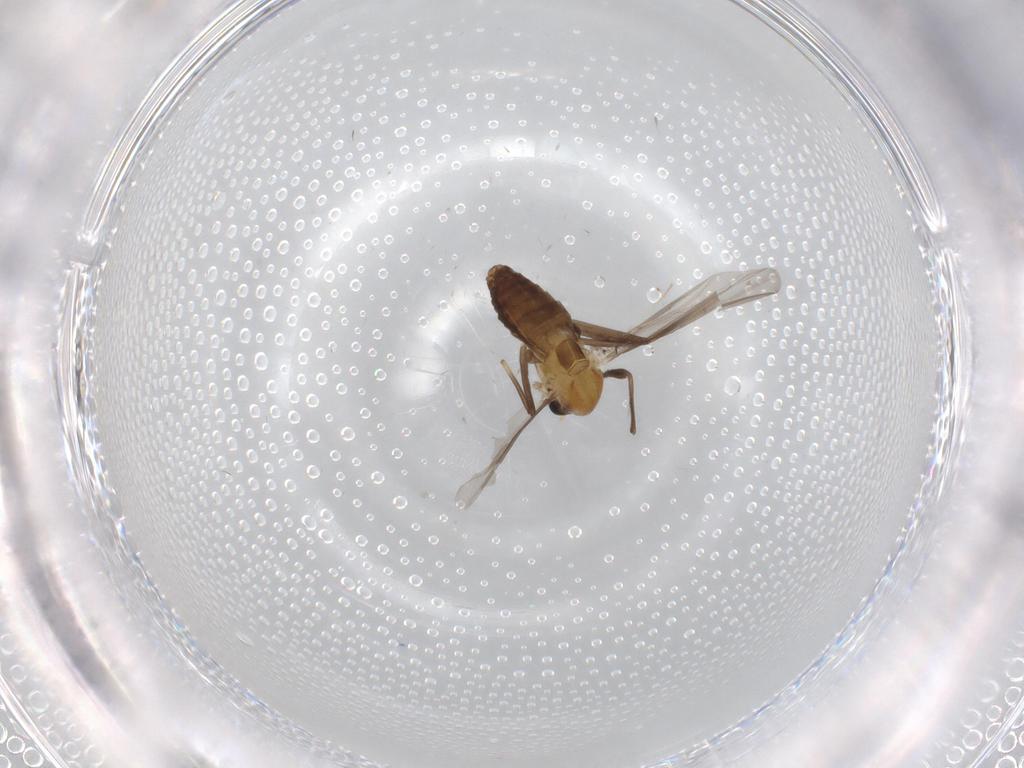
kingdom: Animalia
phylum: Arthropoda
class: Insecta
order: Diptera
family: Chironomidae
